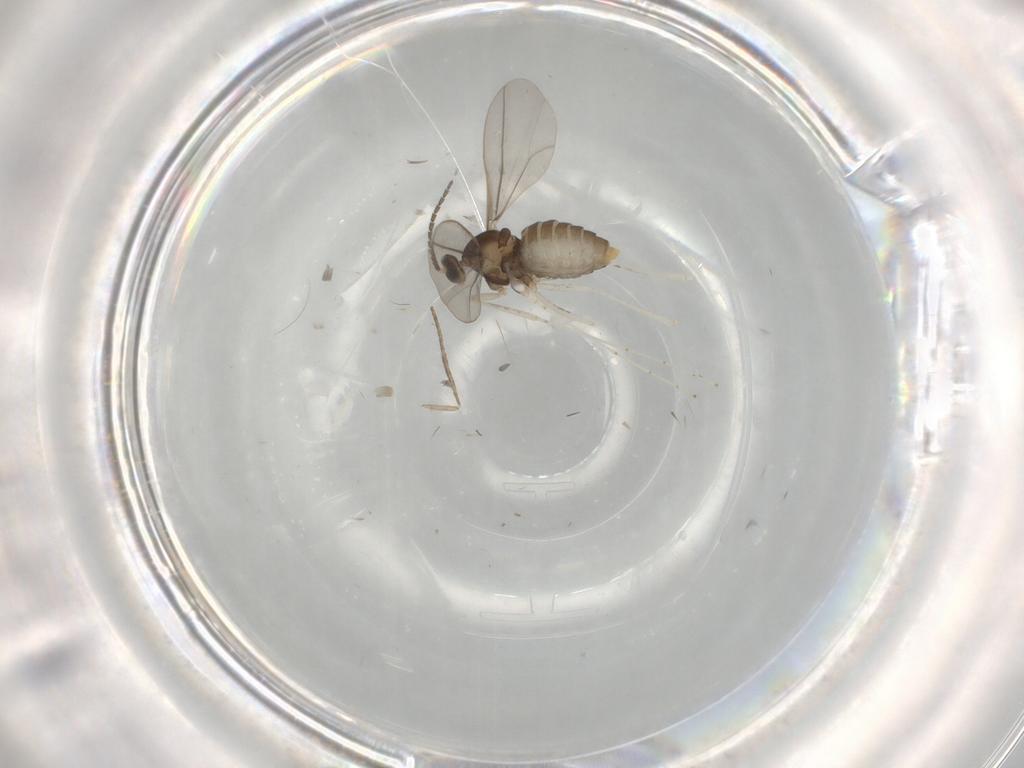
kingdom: Animalia
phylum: Arthropoda
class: Insecta
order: Diptera
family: Cecidomyiidae
